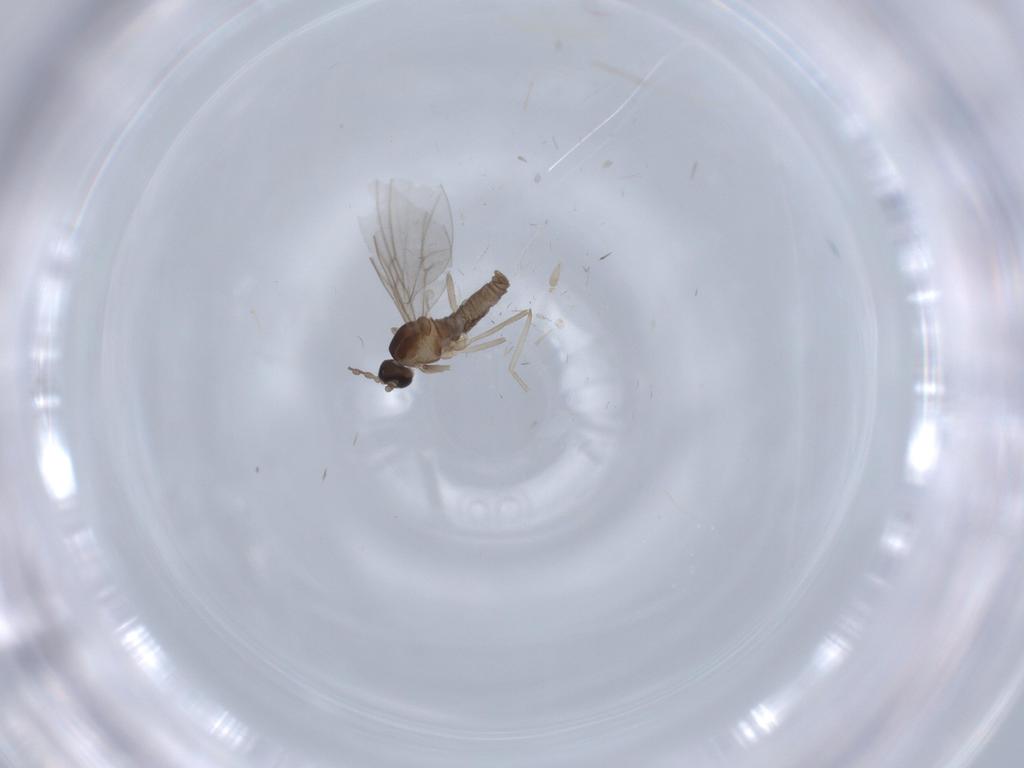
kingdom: Animalia
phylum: Arthropoda
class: Insecta
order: Diptera
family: Cecidomyiidae
